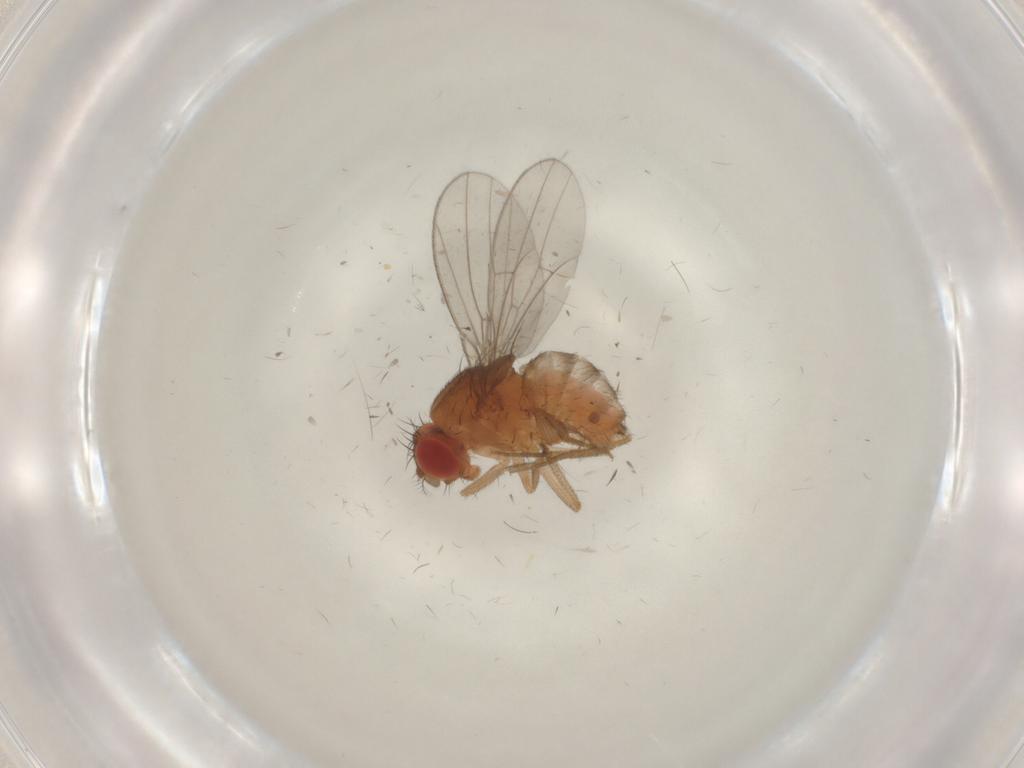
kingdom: Animalia
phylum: Arthropoda
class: Insecta
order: Diptera
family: Drosophilidae
